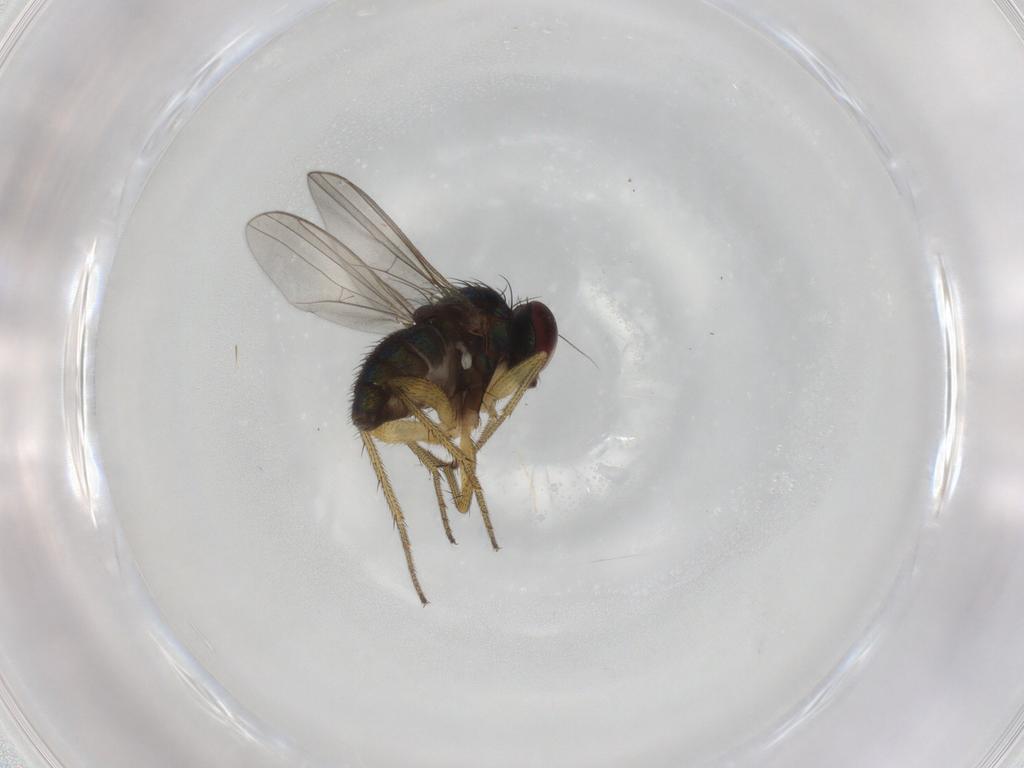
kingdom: Animalia
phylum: Arthropoda
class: Insecta
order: Diptera
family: Dolichopodidae
